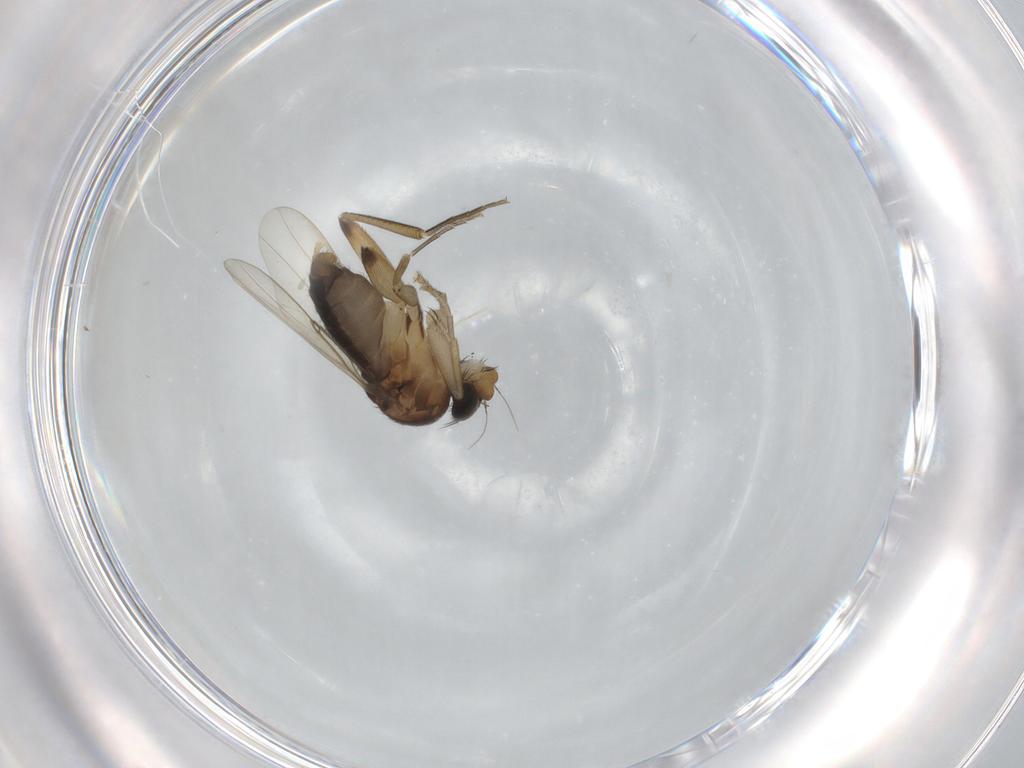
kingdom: Animalia
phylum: Arthropoda
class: Insecta
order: Diptera
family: Phoridae
